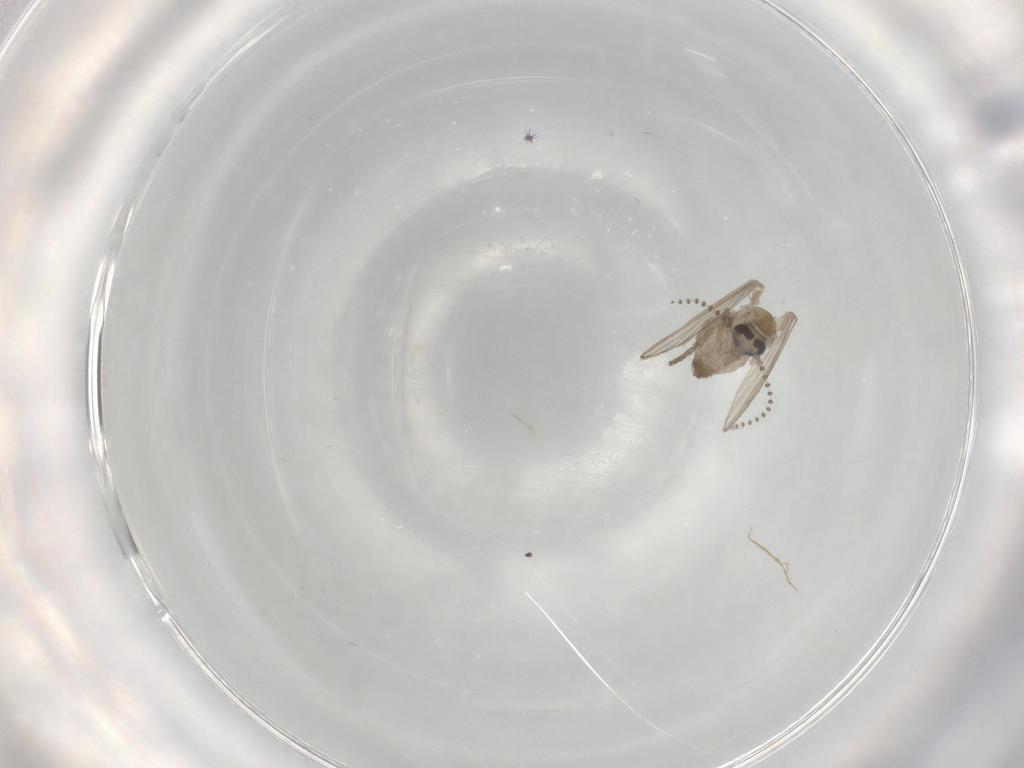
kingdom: Animalia
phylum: Arthropoda
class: Insecta
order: Diptera
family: Psychodidae
